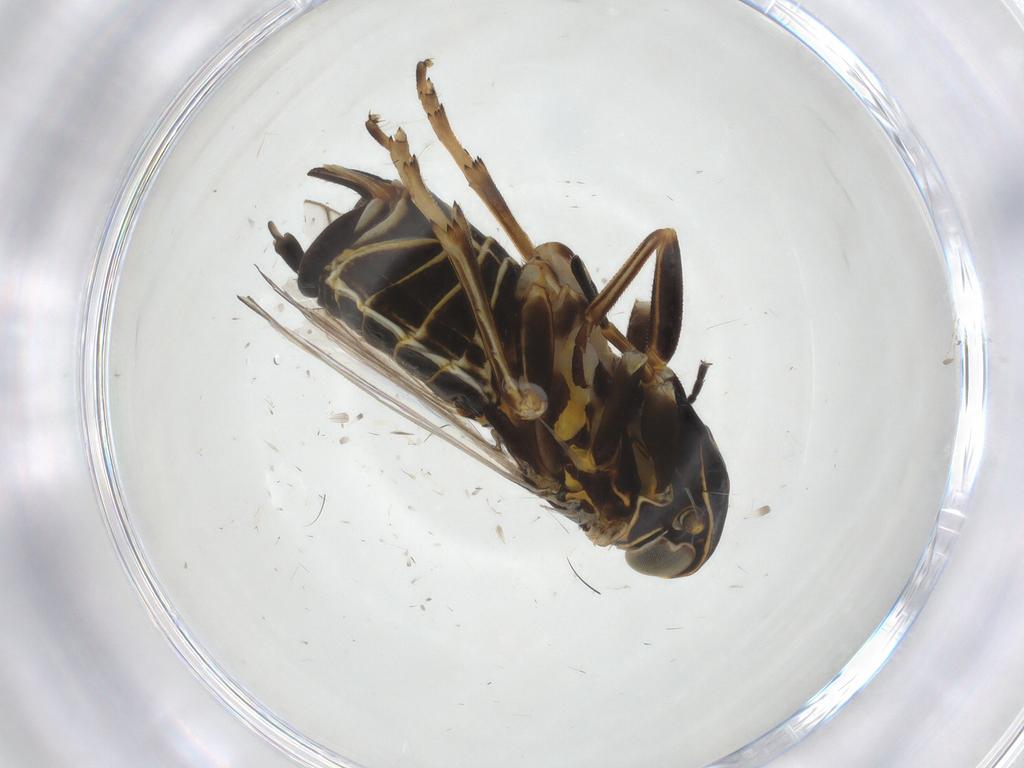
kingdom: Animalia
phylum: Arthropoda
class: Insecta
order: Hemiptera
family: Cixiidae
